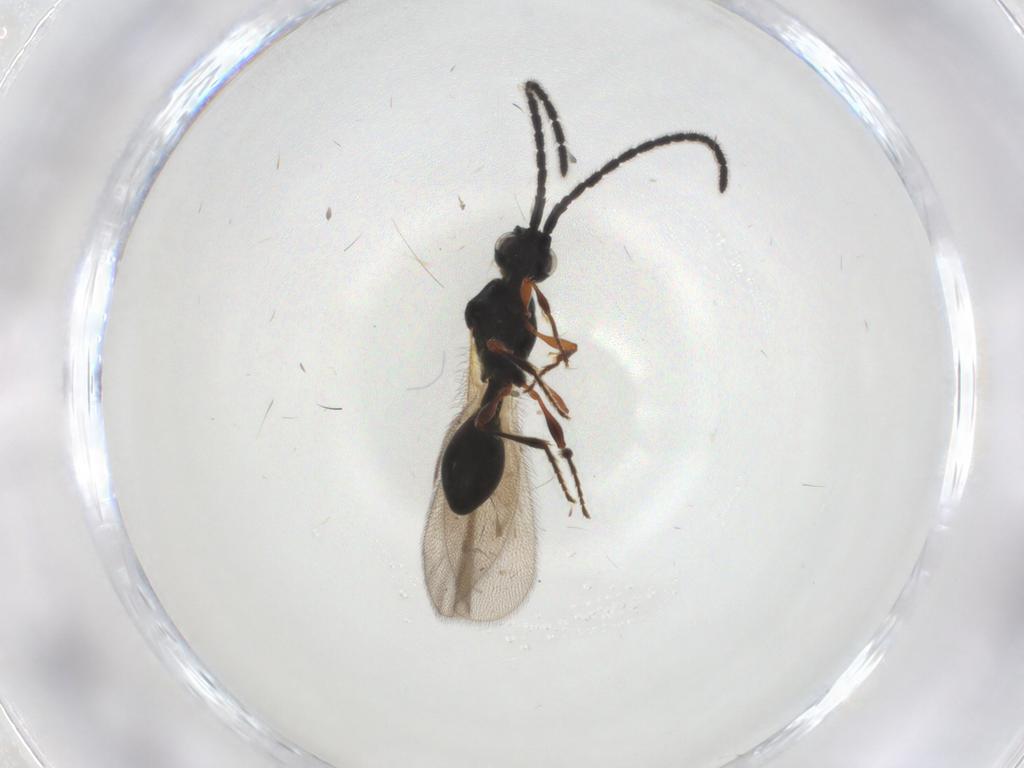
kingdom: Animalia
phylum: Arthropoda
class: Insecta
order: Hymenoptera
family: Diapriidae
